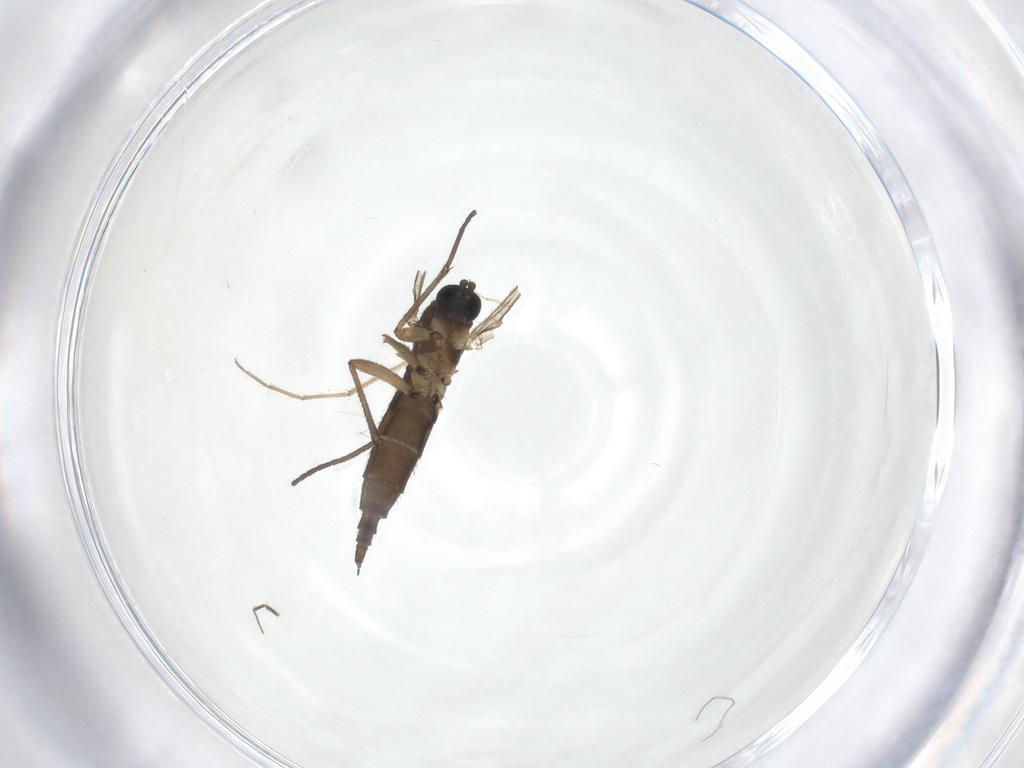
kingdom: Animalia
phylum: Arthropoda
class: Insecta
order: Diptera
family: Sciaridae
